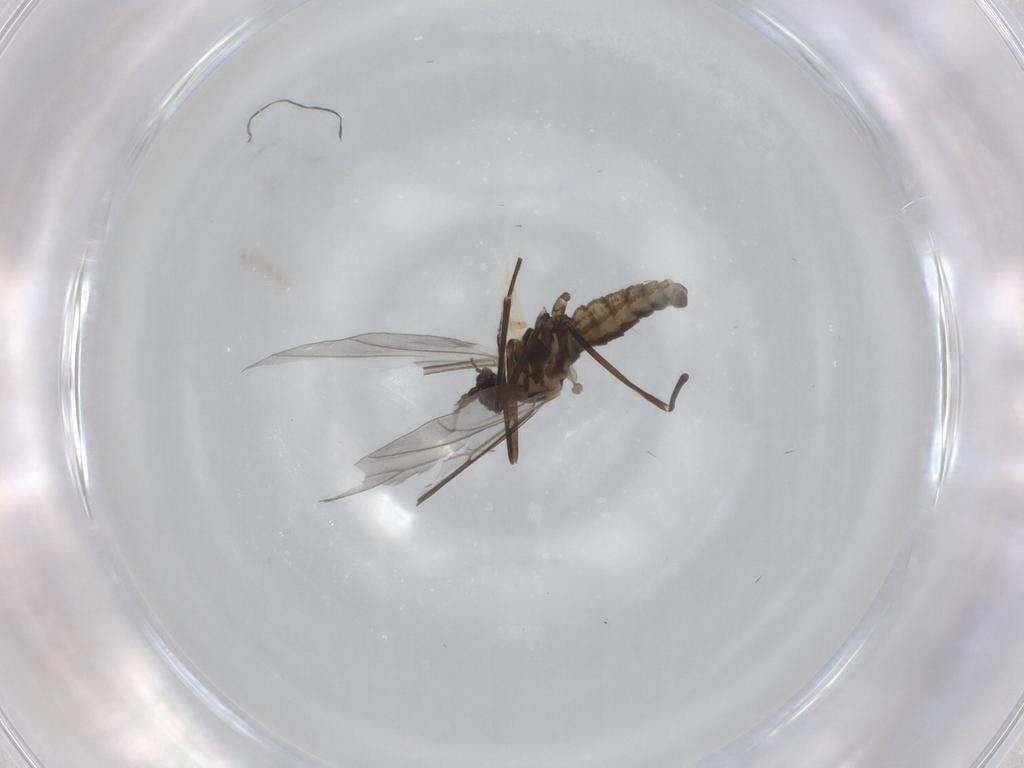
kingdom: Animalia
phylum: Arthropoda
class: Insecta
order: Diptera
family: Cecidomyiidae
